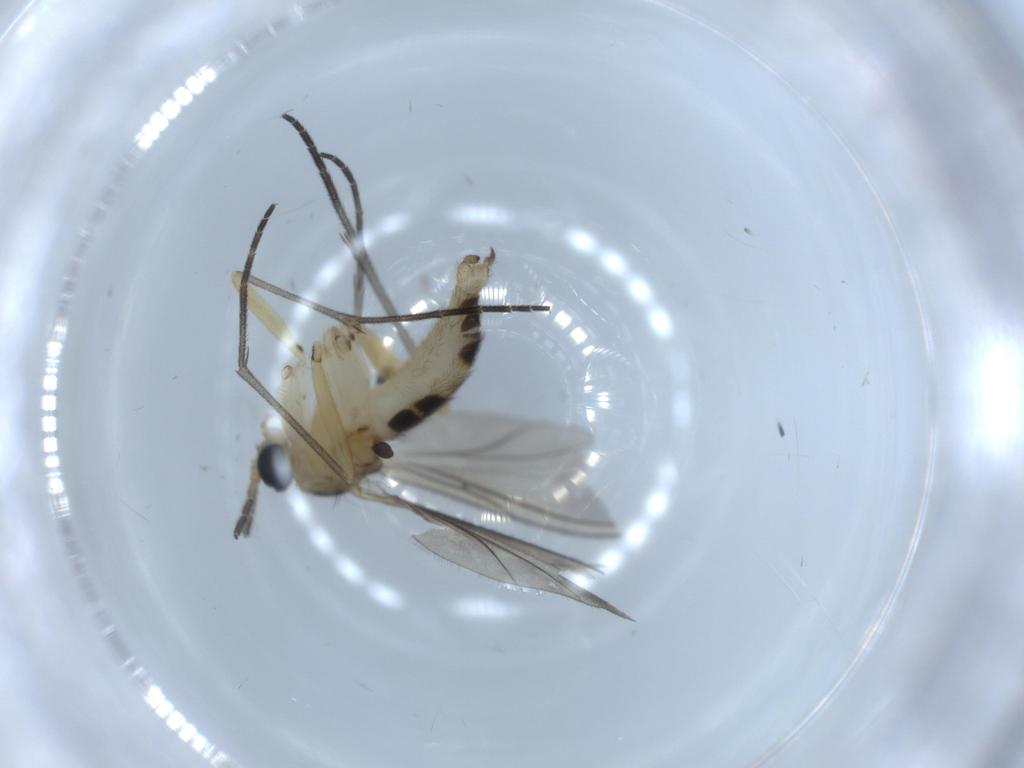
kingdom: Animalia
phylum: Arthropoda
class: Insecta
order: Diptera
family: Sciaridae
